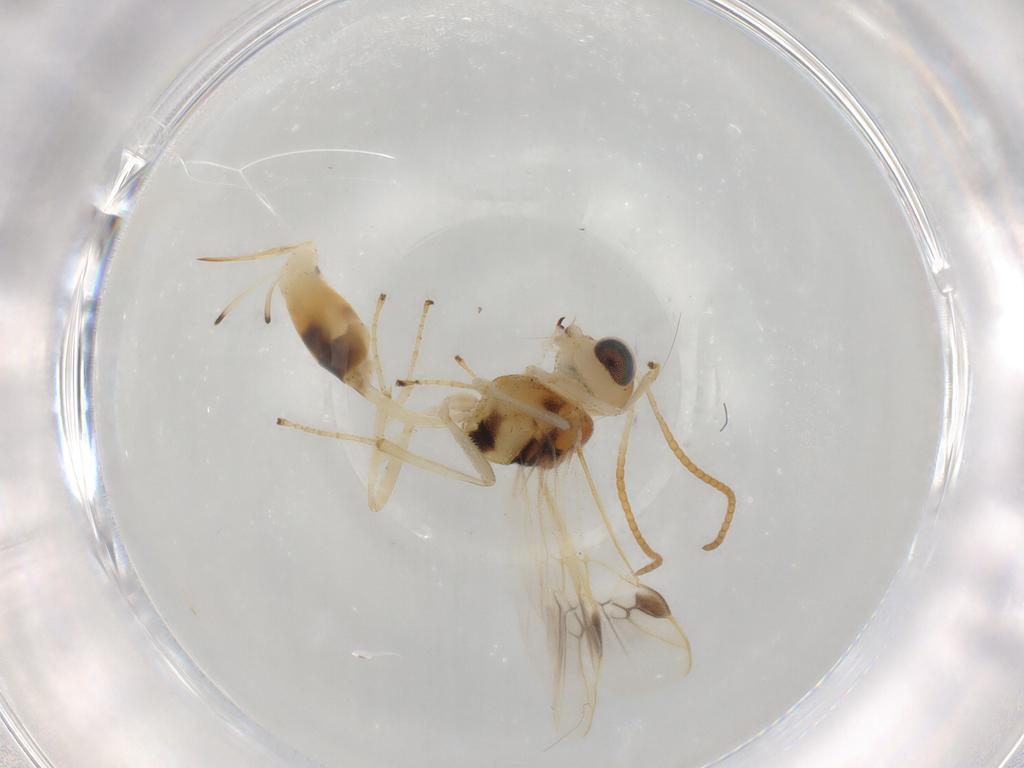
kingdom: Animalia
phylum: Arthropoda
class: Insecta
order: Hymenoptera
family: Braconidae
